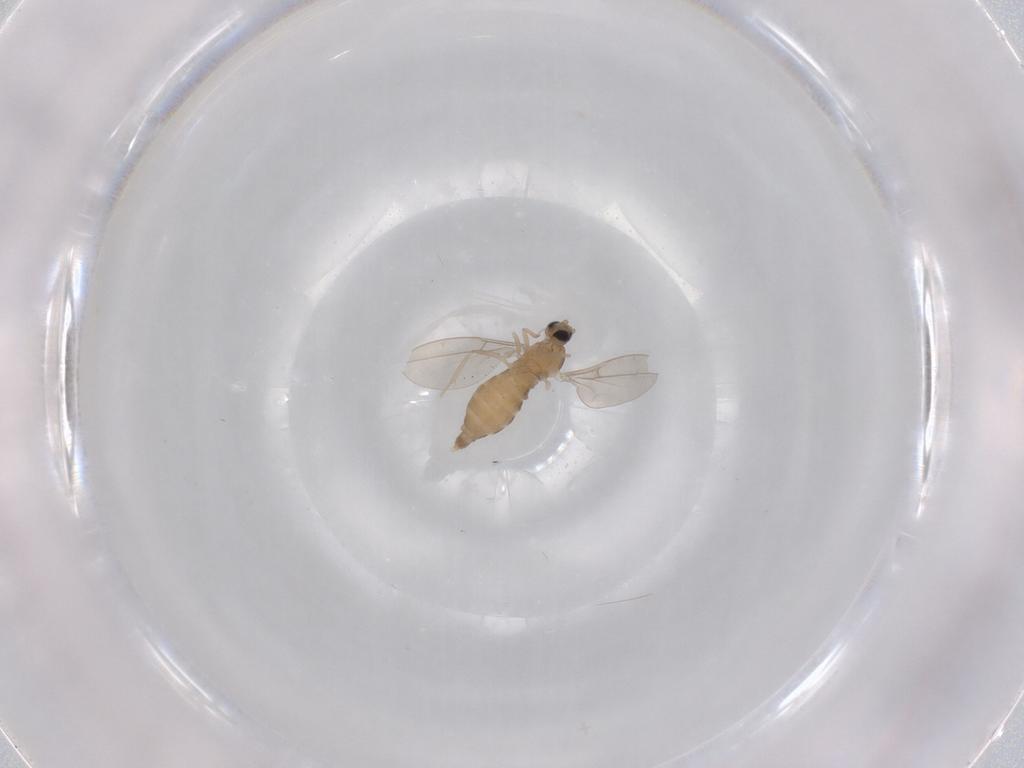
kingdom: Animalia
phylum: Arthropoda
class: Insecta
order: Diptera
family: Cecidomyiidae
